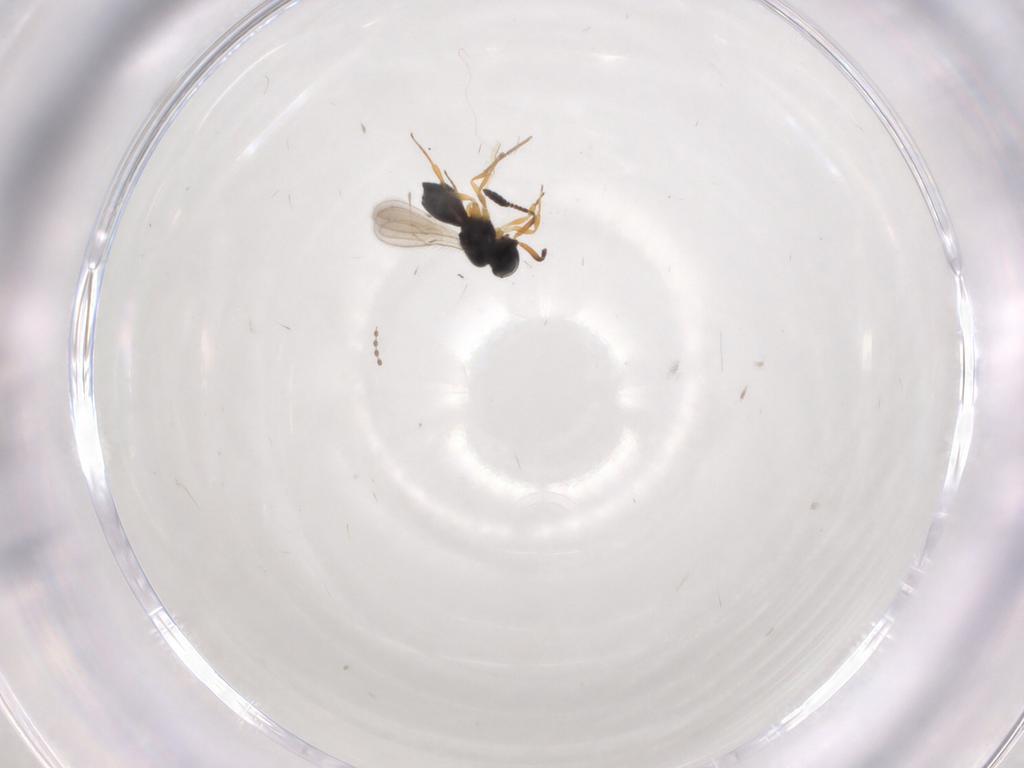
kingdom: Animalia
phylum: Arthropoda
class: Insecta
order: Hymenoptera
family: Scelionidae
